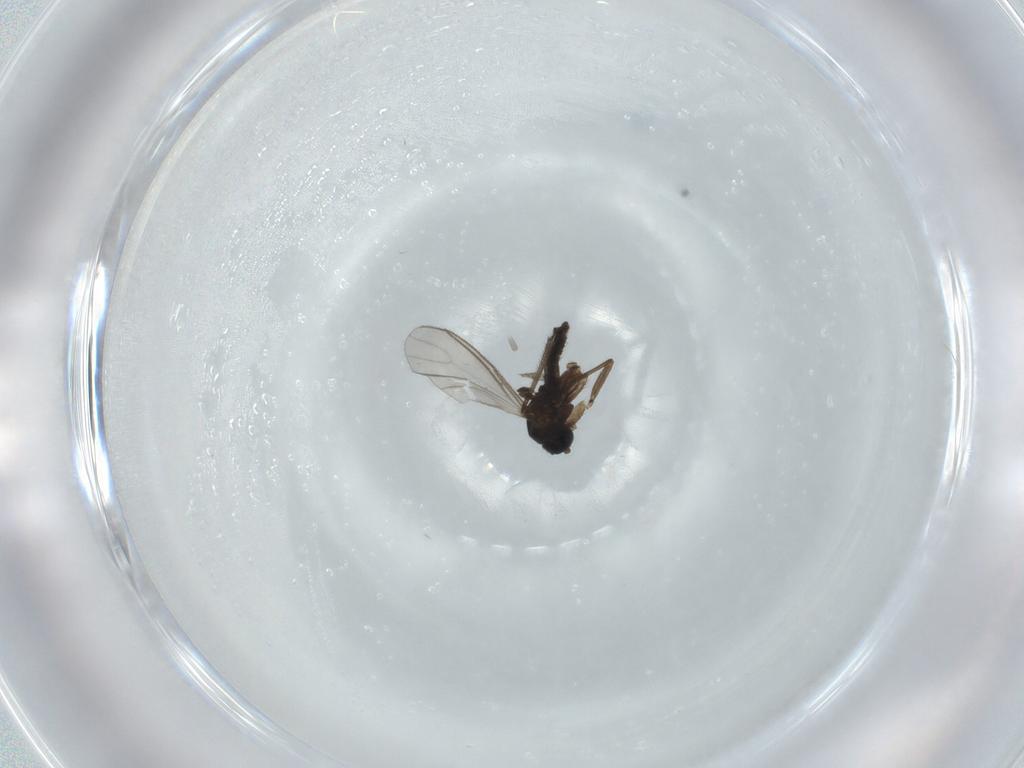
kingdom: Animalia
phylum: Arthropoda
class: Insecta
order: Diptera
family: Sciaridae
